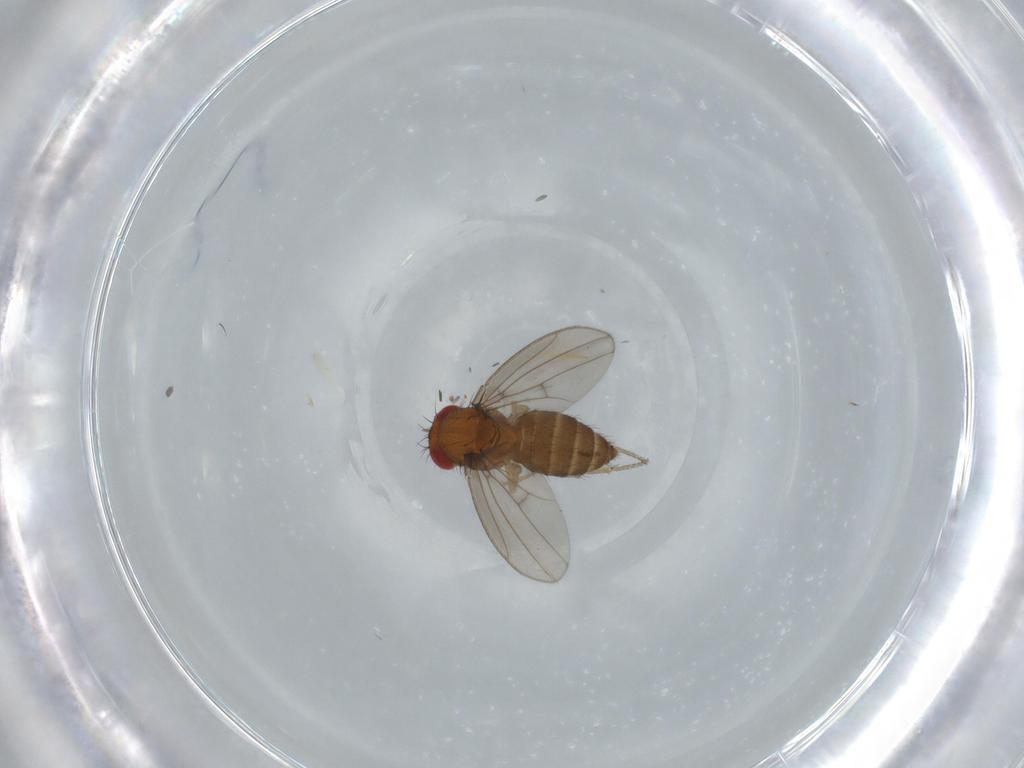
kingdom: Animalia
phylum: Arthropoda
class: Insecta
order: Diptera
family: Drosophilidae
